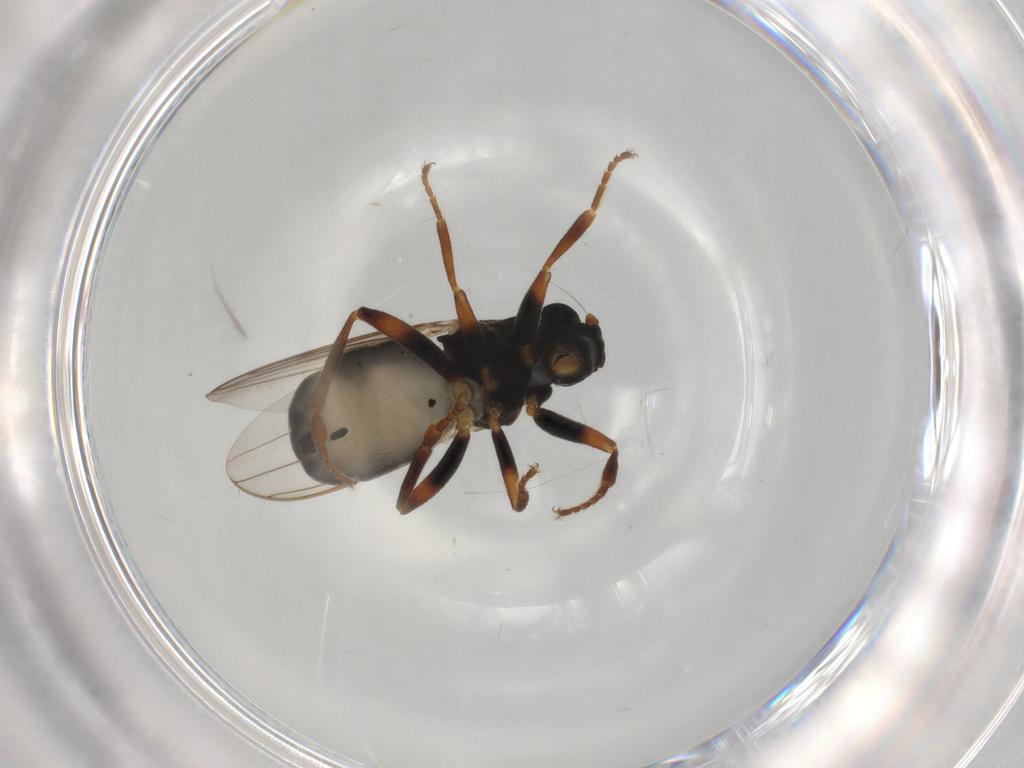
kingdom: Animalia
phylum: Arthropoda
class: Insecta
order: Diptera
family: Sphaeroceridae
